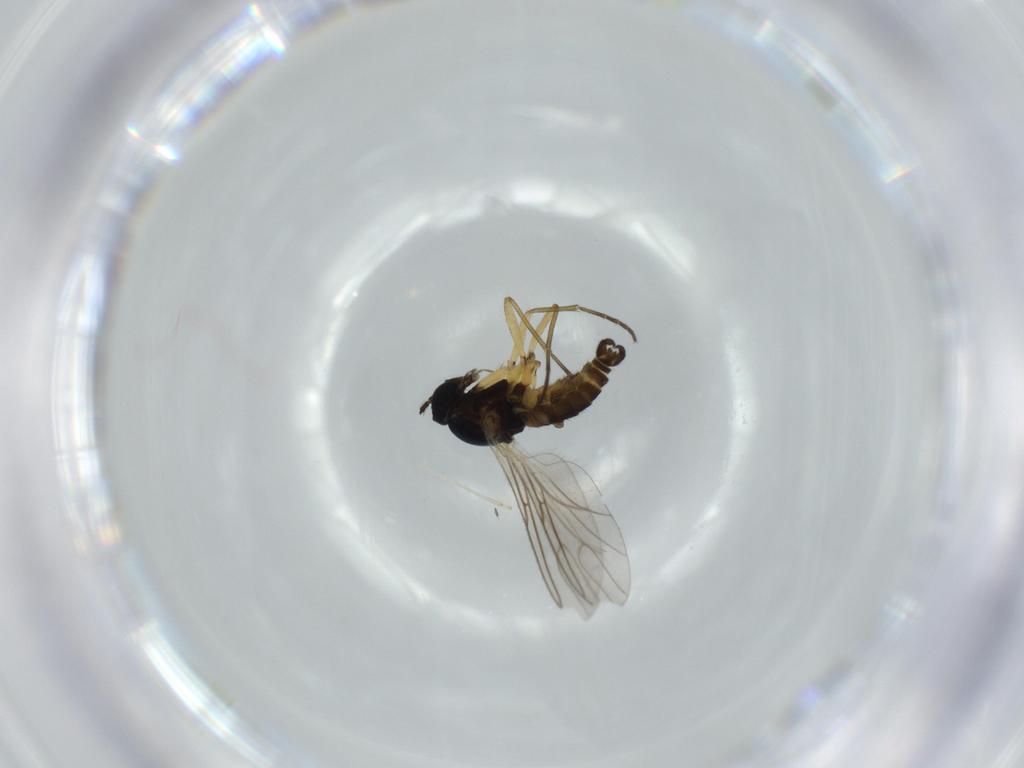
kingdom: Animalia
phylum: Arthropoda
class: Insecta
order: Diptera
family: Sciaridae
